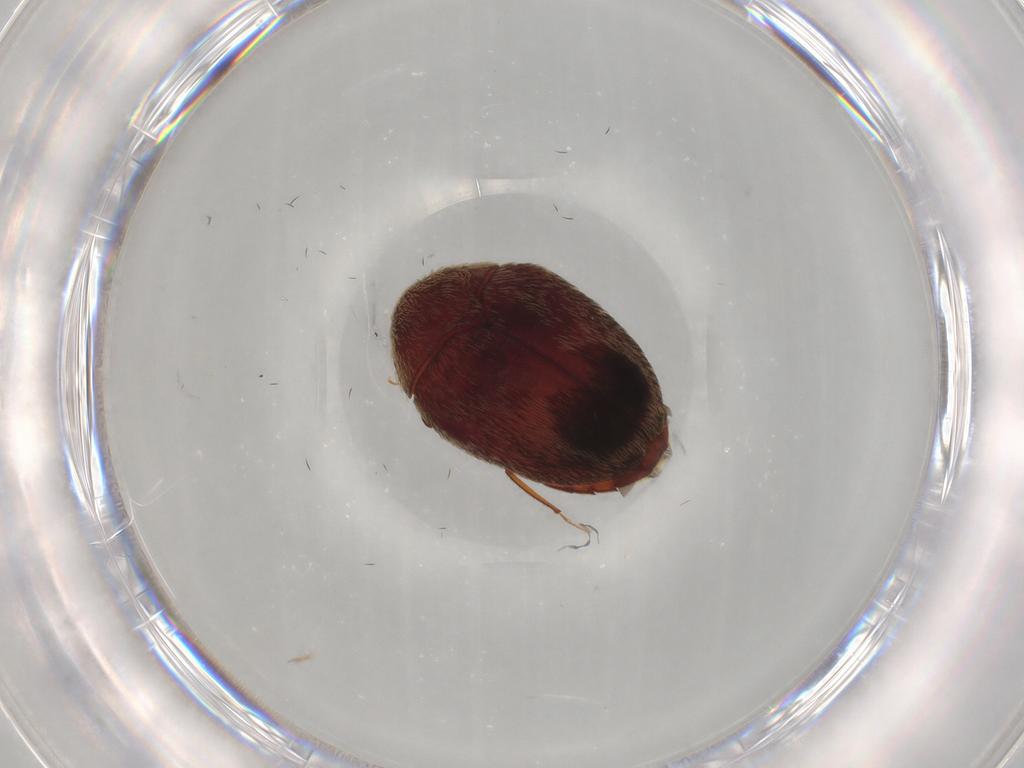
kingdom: Animalia
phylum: Arthropoda
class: Insecta
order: Coleoptera
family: Dermestidae
